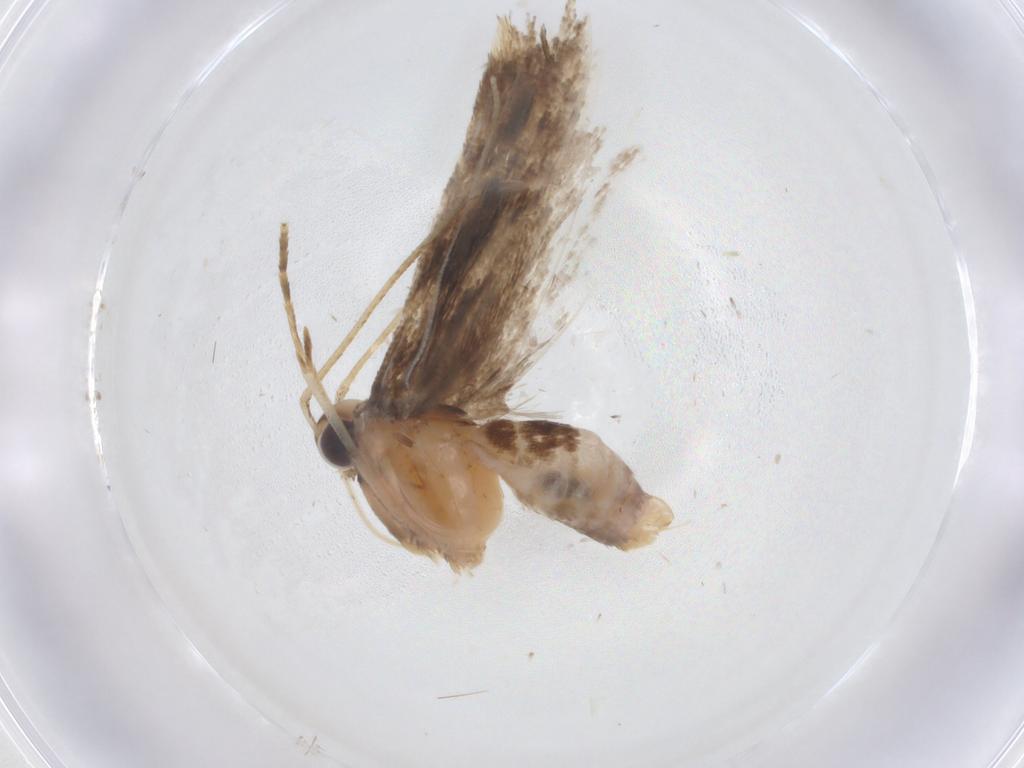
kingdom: Animalia
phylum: Arthropoda
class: Insecta
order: Lepidoptera
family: Gelechiidae
